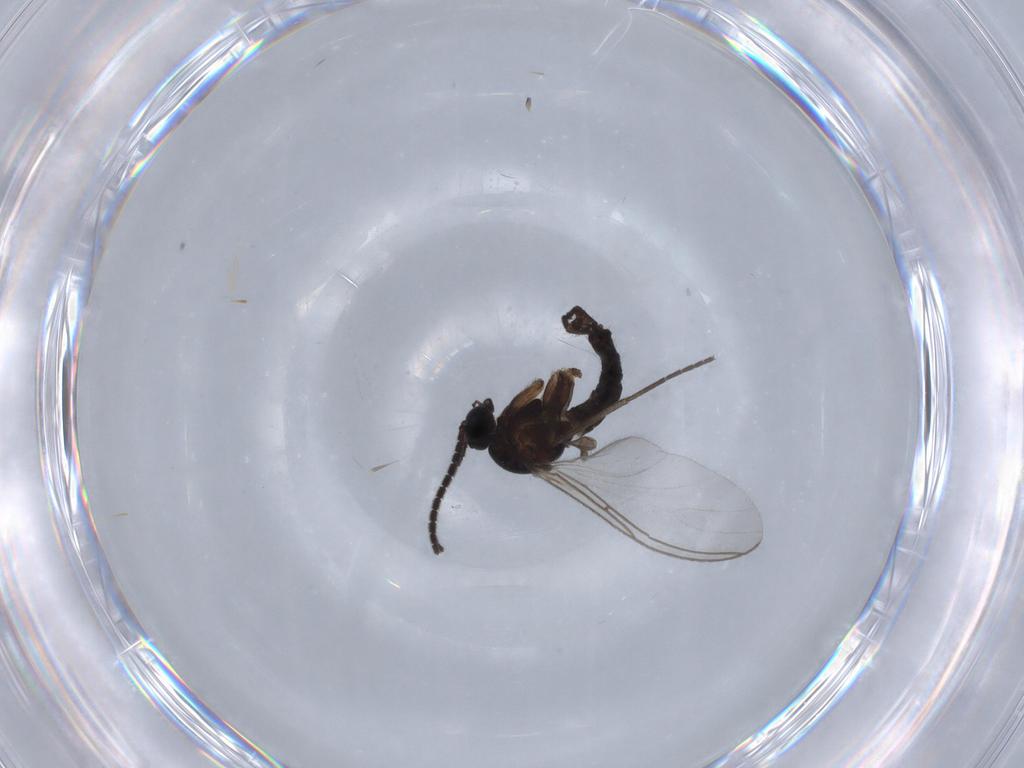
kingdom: Animalia
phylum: Arthropoda
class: Insecta
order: Diptera
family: Sciaridae
